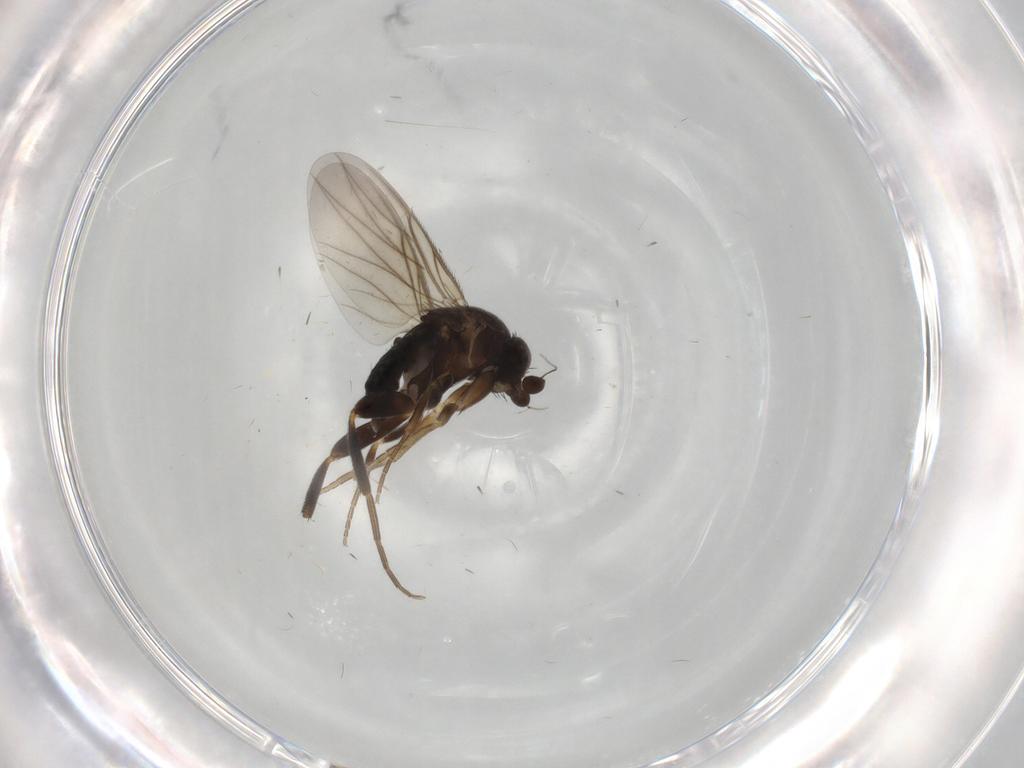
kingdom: Animalia
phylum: Arthropoda
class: Insecta
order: Diptera
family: Phoridae
